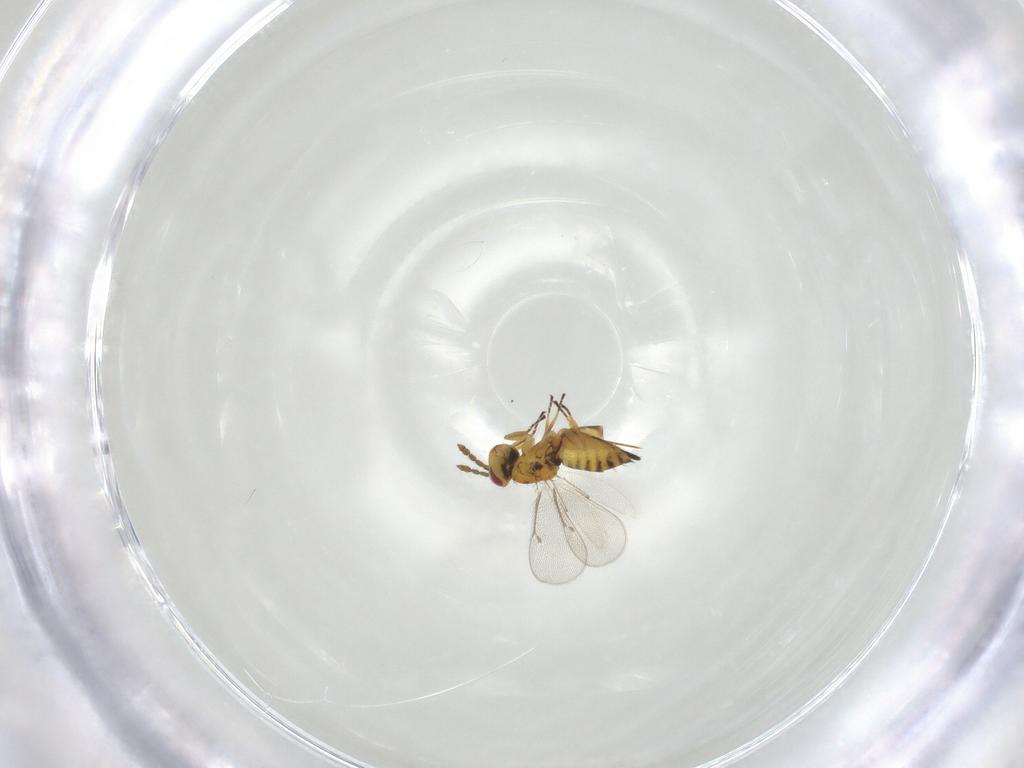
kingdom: Animalia
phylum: Arthropoda
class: Insecta
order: Hymenoptera
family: Eulophidae
